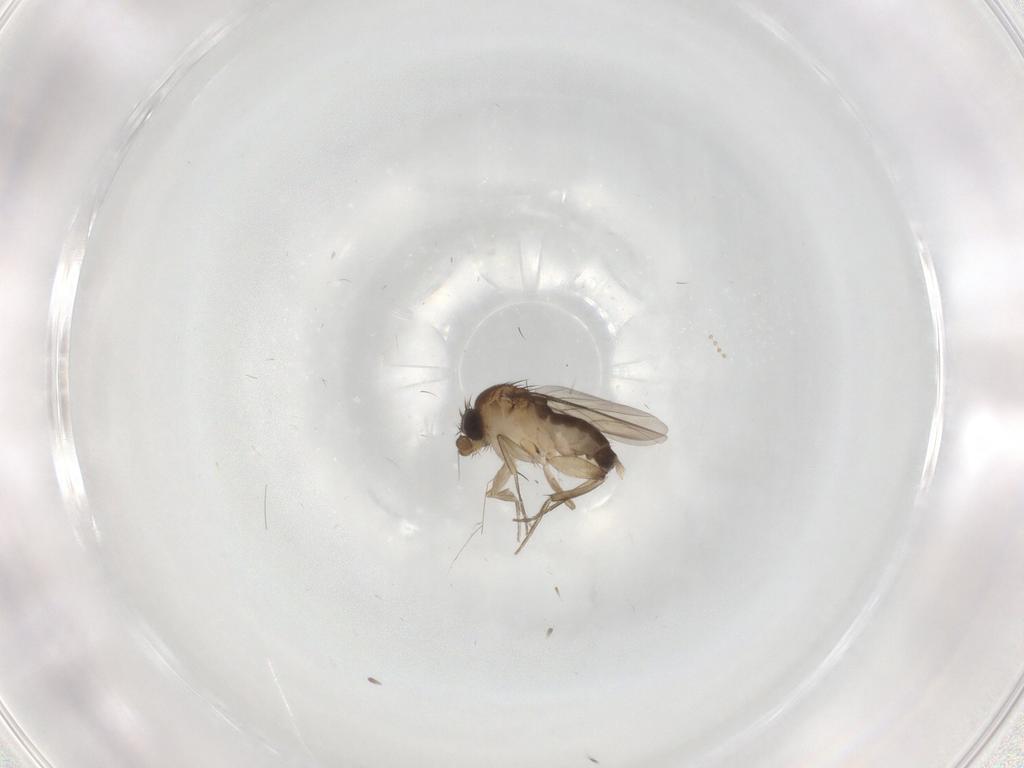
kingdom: Animalia
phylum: Arthropoda
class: Insecta
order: Diptera
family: Phoridae
